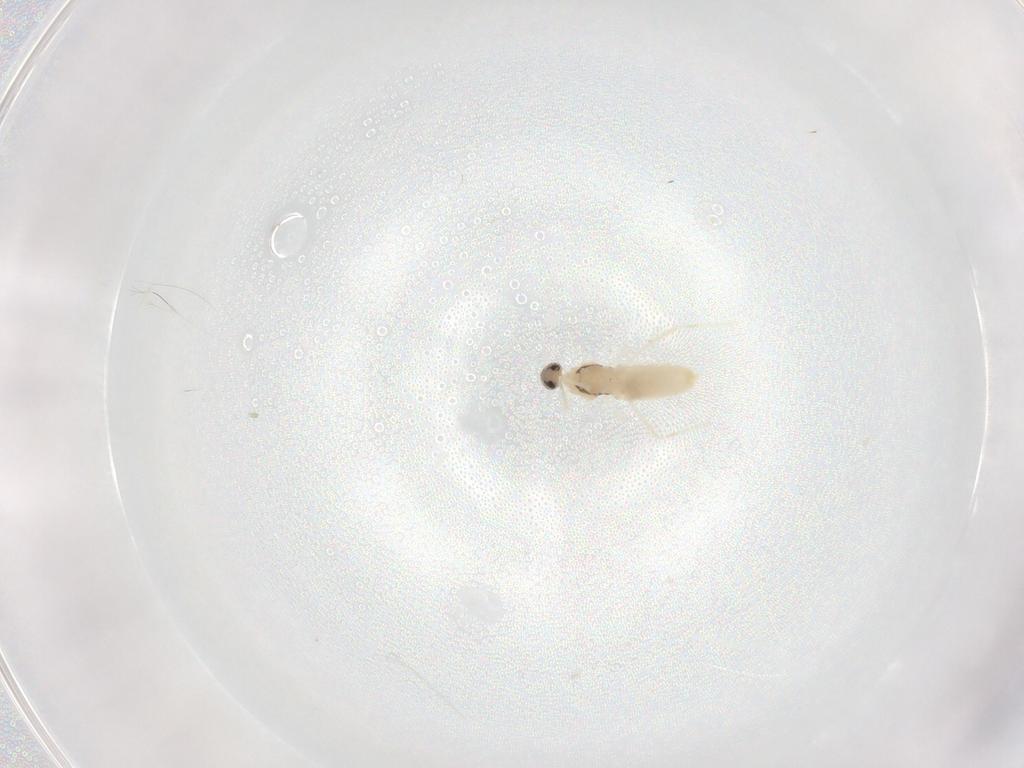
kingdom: Animalia
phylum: Arthropoda
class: Insecta
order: Diptera
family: Cecidomyiidae
